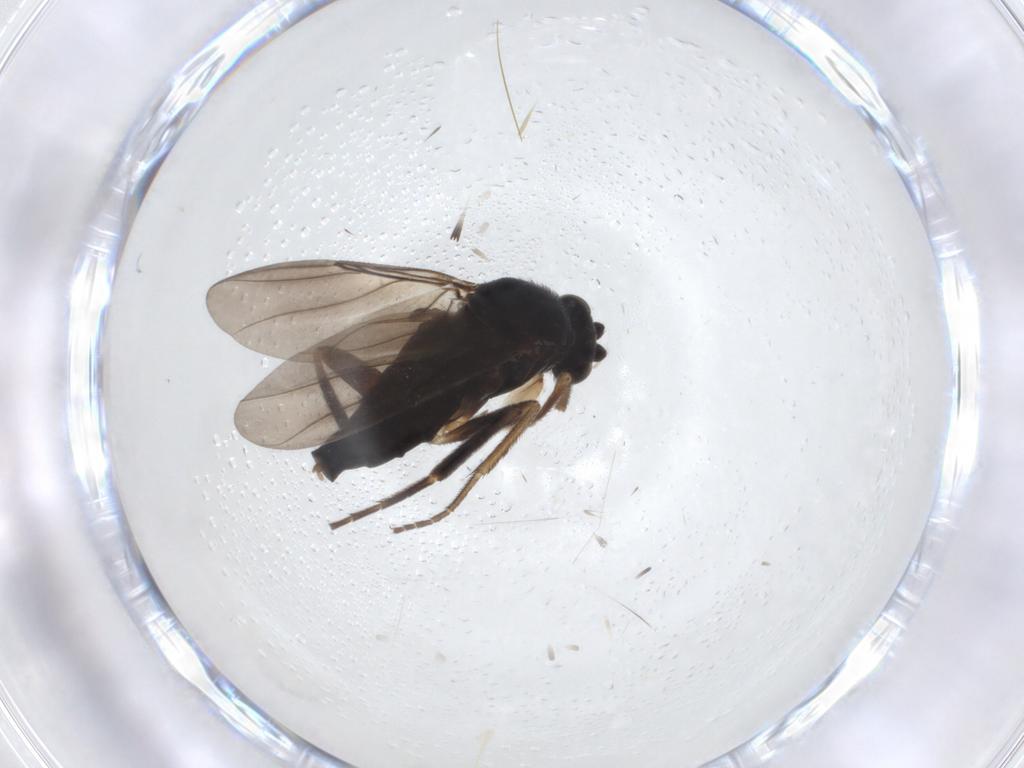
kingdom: Animalia
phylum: Arthropoda
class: Insecta
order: Diptera
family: Phoridae
